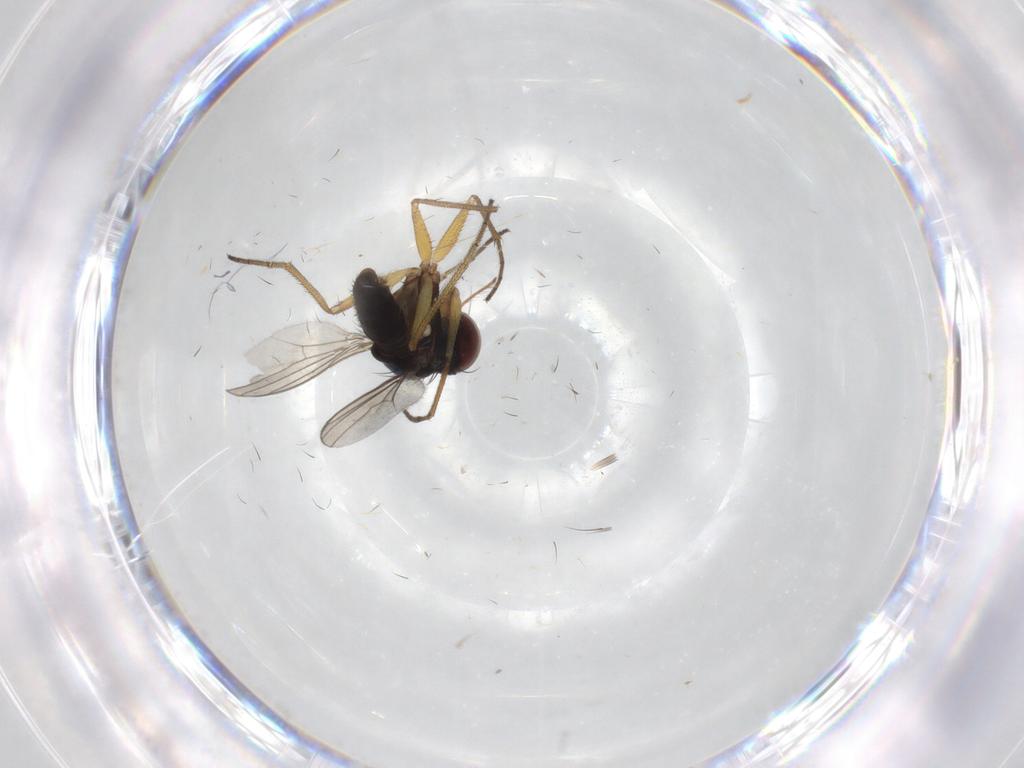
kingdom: Animalia
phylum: Arthropoda
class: Insecta
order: Diptera
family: Dolichopodidae
